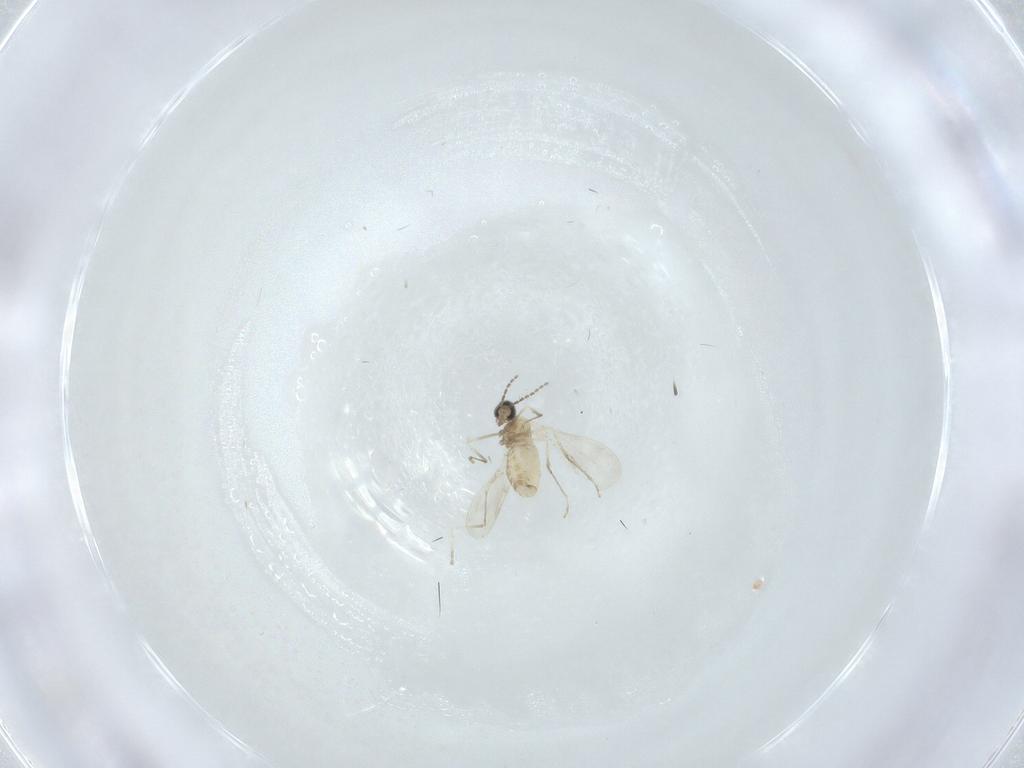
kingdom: Animalia
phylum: Arthropoda
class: Insecta
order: Diptera
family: Cecidomyiidae
